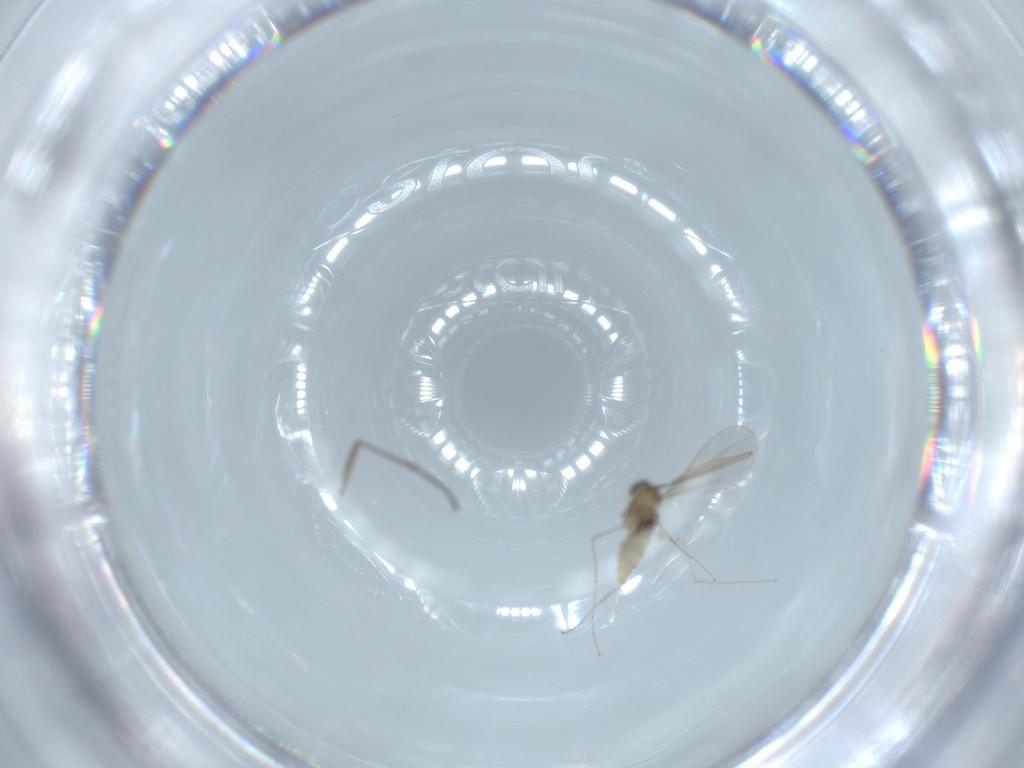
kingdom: Animalia
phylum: Arthropoda
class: Insecta
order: Diptera
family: Sciaridae
